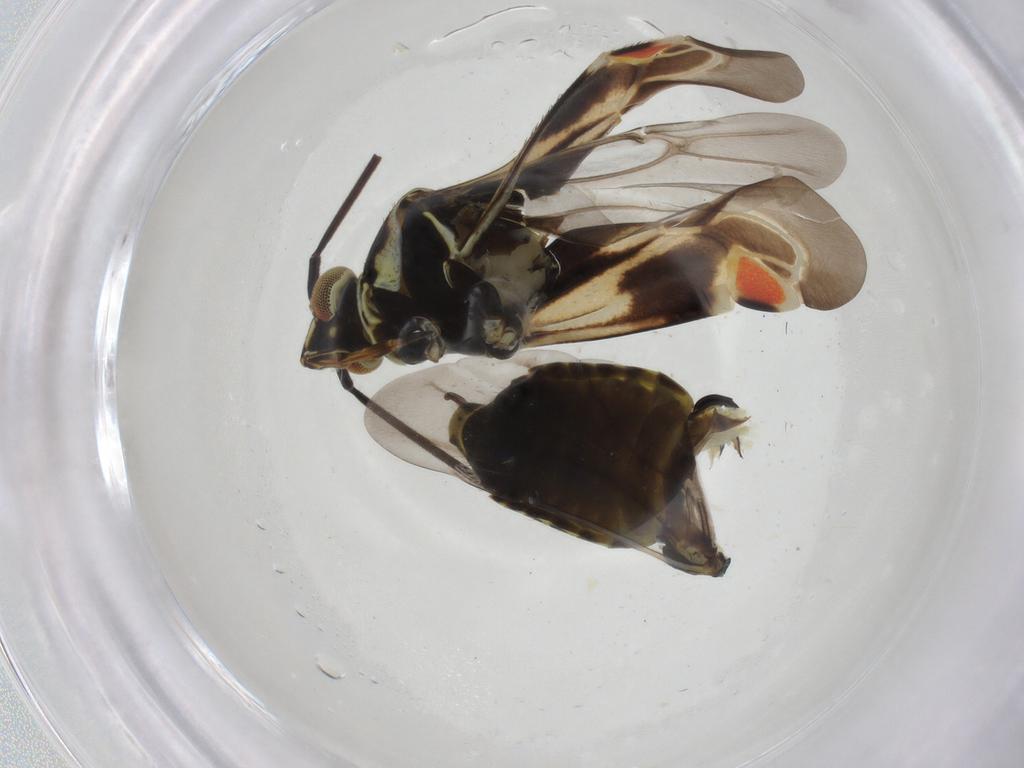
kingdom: Animalia
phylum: Arthropoda
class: Insecta
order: Hemiptera
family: Miridae
